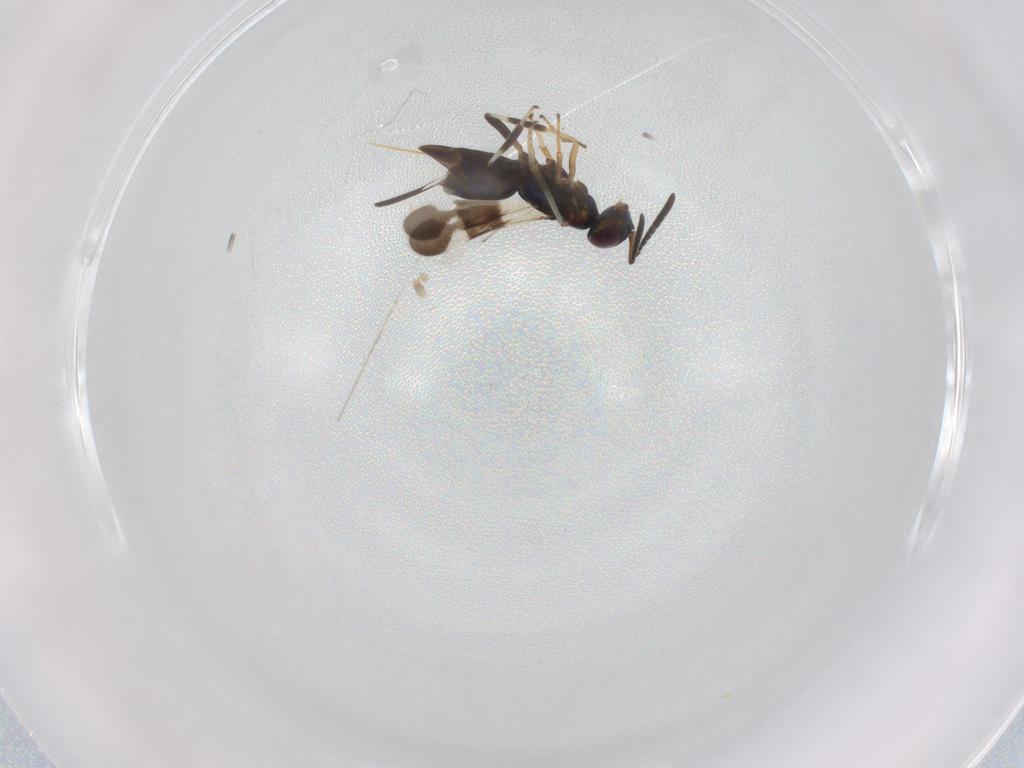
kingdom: Animalia
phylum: Arthropoda
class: Insecta
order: Hymenoptera
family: Encyrtidae
